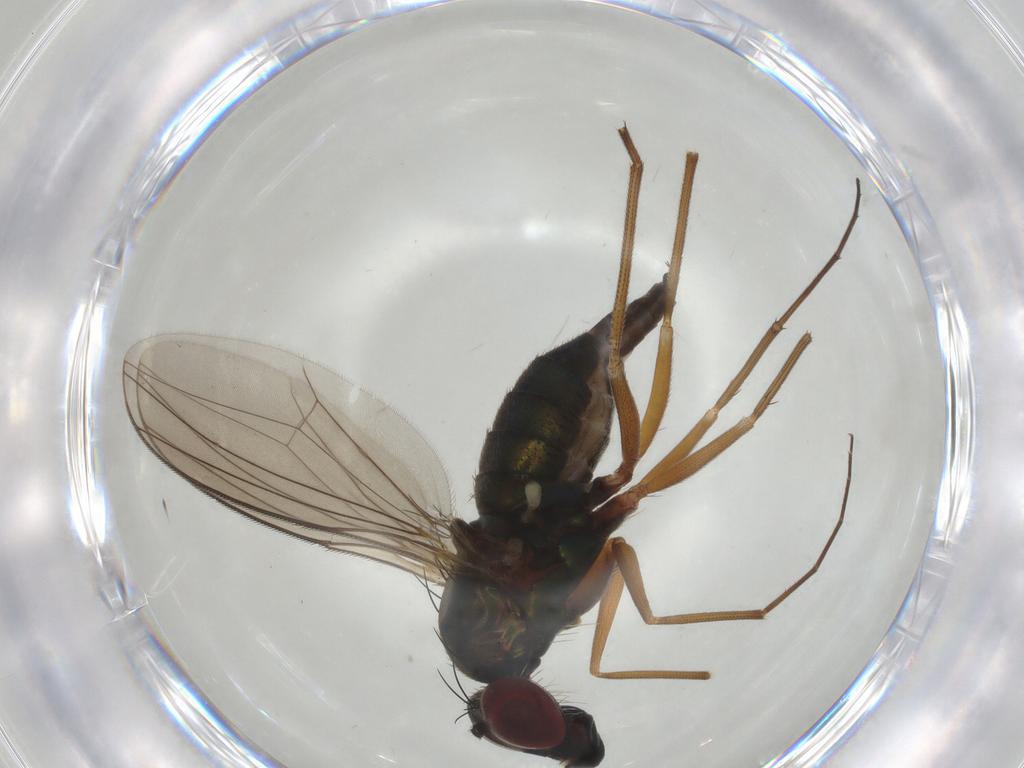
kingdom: Animalia
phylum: Arthropoda
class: Insecta
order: Diptera
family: Dolichopodidae
